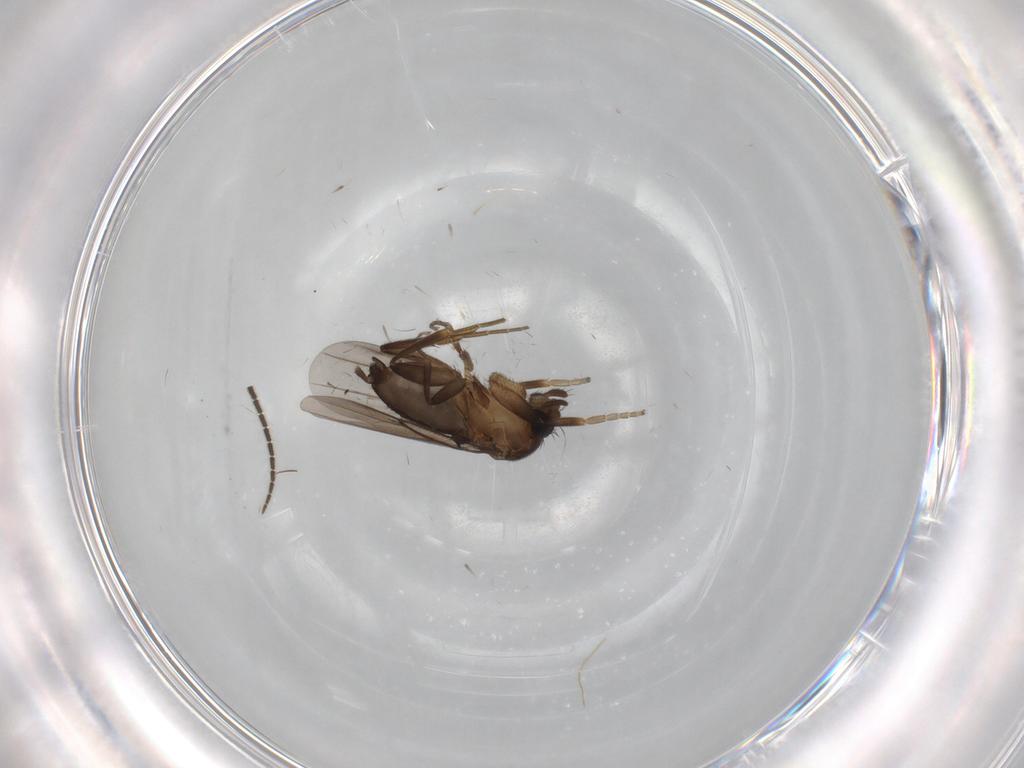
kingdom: Animalia
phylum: Arthropoda
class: Insecta
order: Diptera
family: Sciaridae
